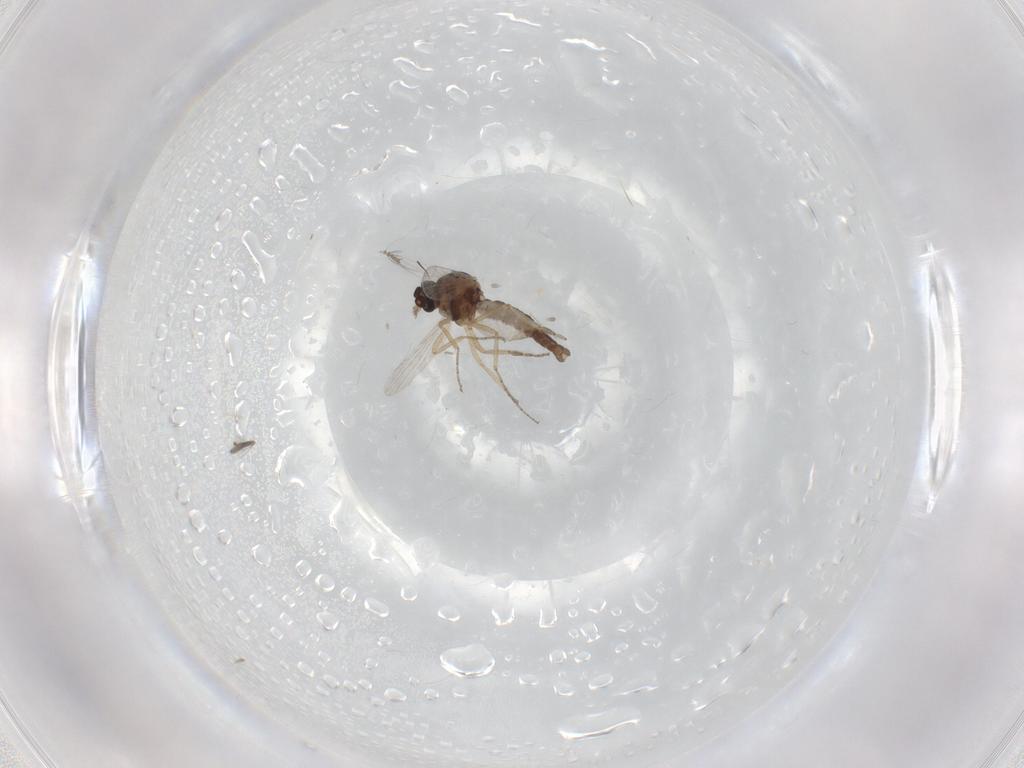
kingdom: Animalia
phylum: Arthropoda
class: Insecta
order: Diptera
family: Ceratopogonidae
